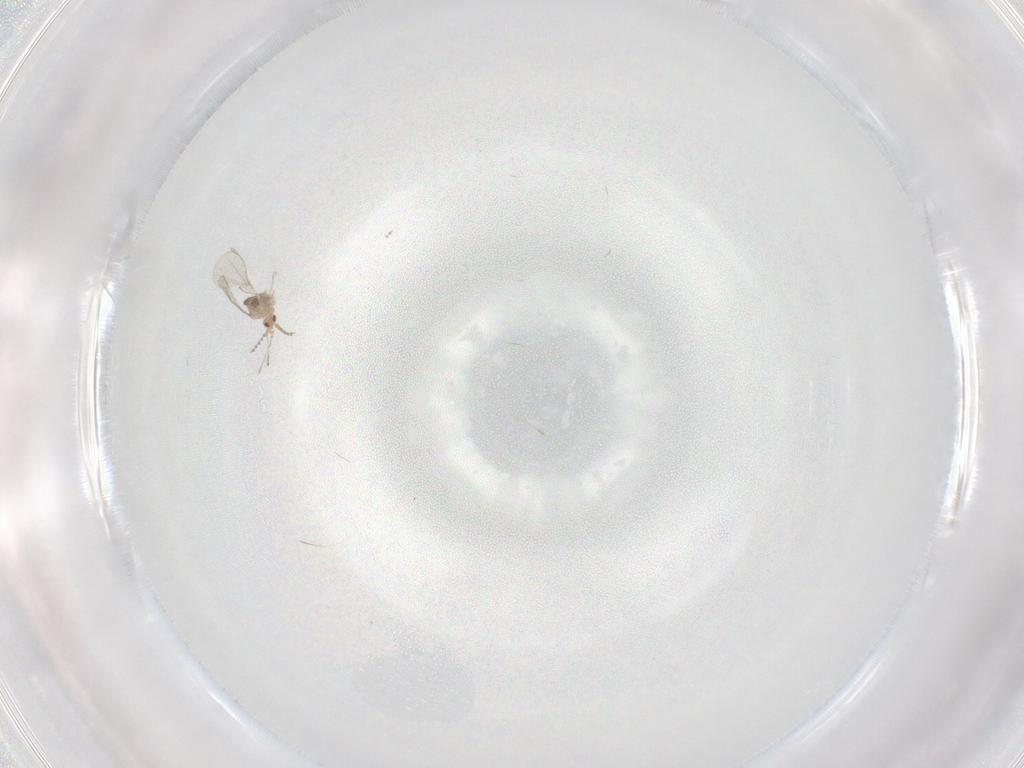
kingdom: Animalia
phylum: Arthropoda
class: Insecta
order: Diptera
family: Cecidomyiidae
